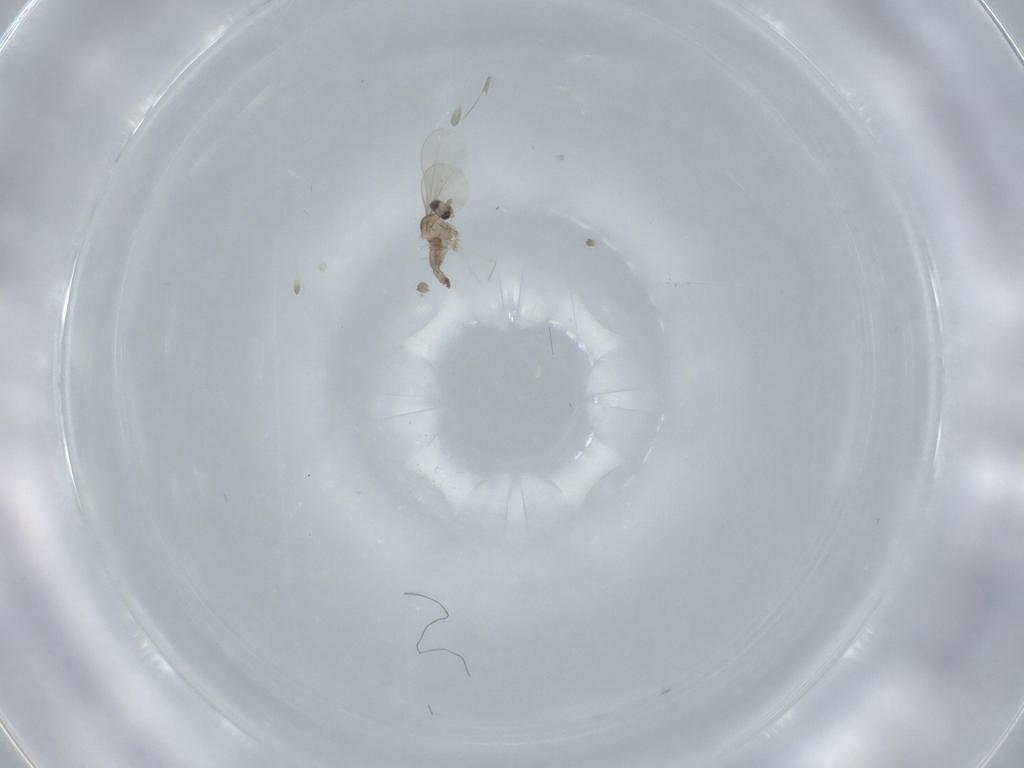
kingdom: Animalia
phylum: Arthropoda
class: Insecta
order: Diptera
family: Cecidomyiidae
